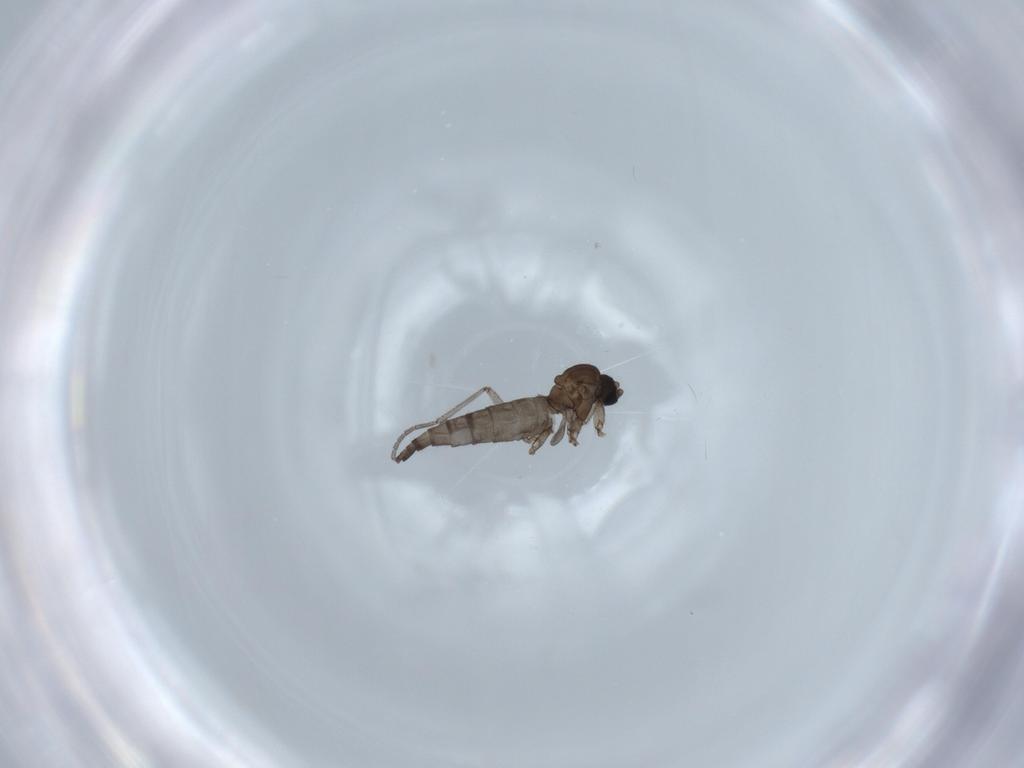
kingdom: Animalia
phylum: Arthropoda
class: Insecta
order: Diptera
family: Sciaridae
